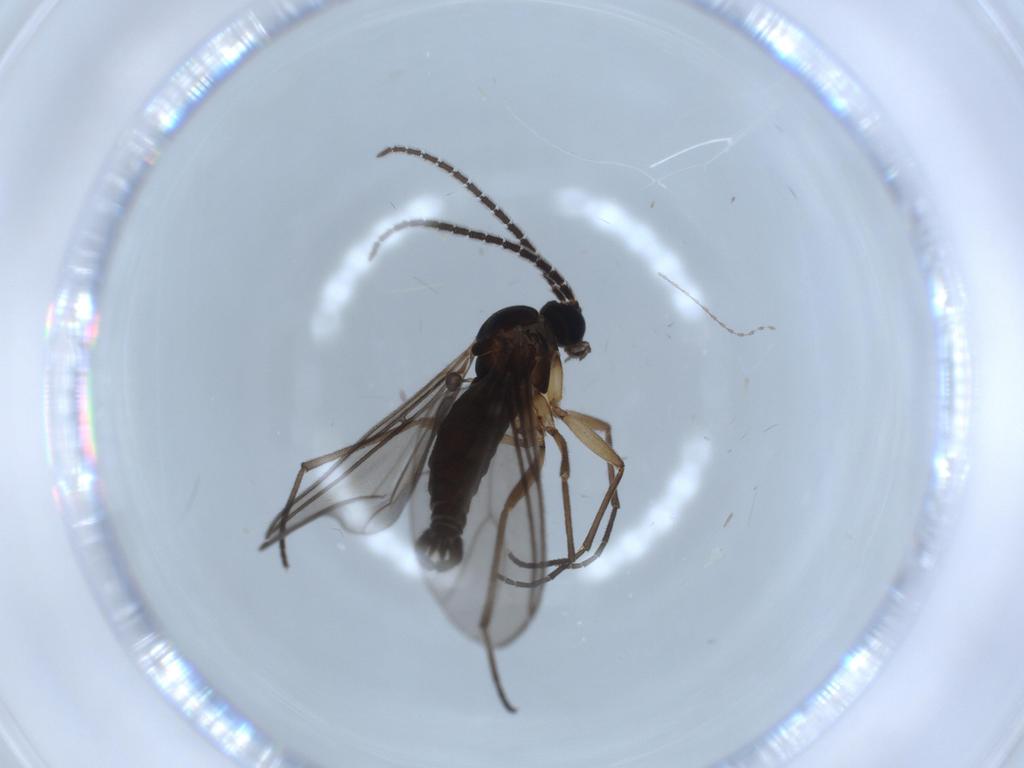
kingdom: Animalia
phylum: Arthropoda
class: Insecta
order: Diptera
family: Sciaridae
